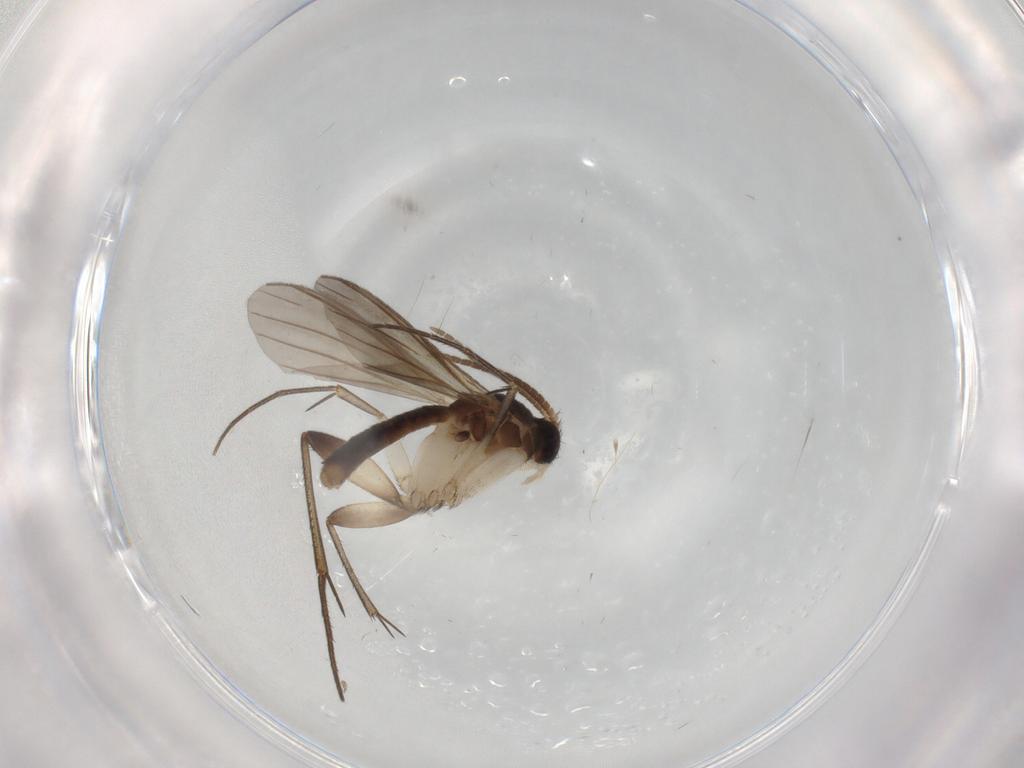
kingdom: Animalia
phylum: Arthropoda
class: Insecta
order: Diptera
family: Mycetophilidae
